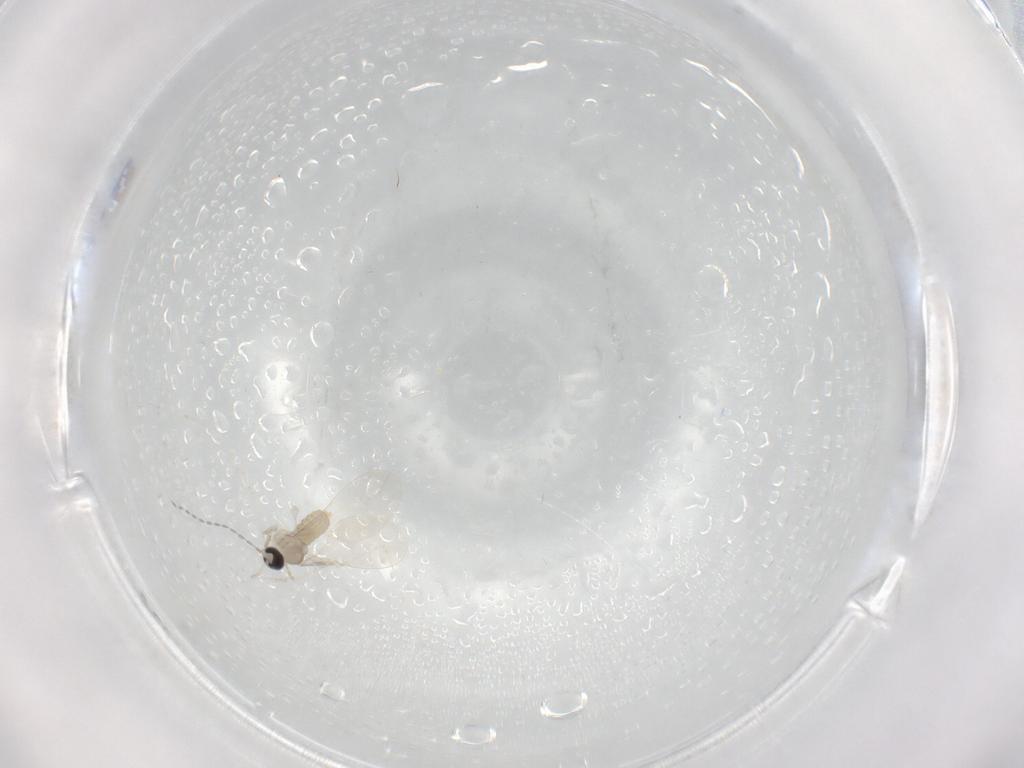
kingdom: Animalia
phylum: Arthropoda
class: Insecta
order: Diptera
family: Cecidomyiidae
